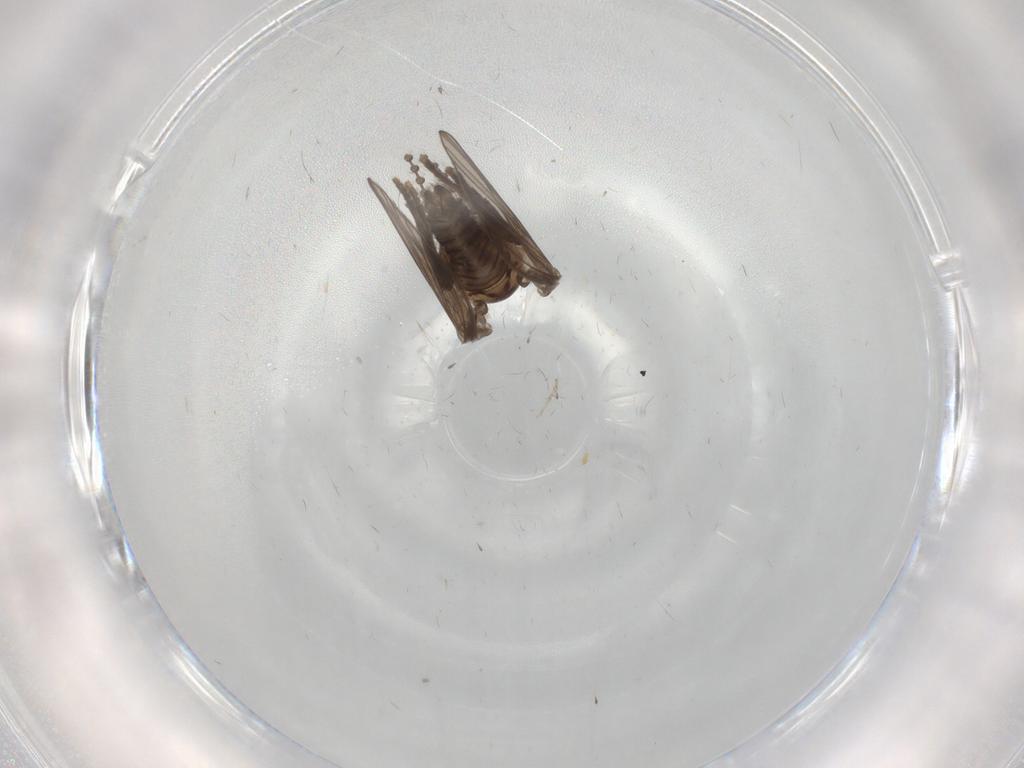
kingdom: Animalia
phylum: Arthropoda
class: Insecta
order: Diptera
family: Psychodidae
